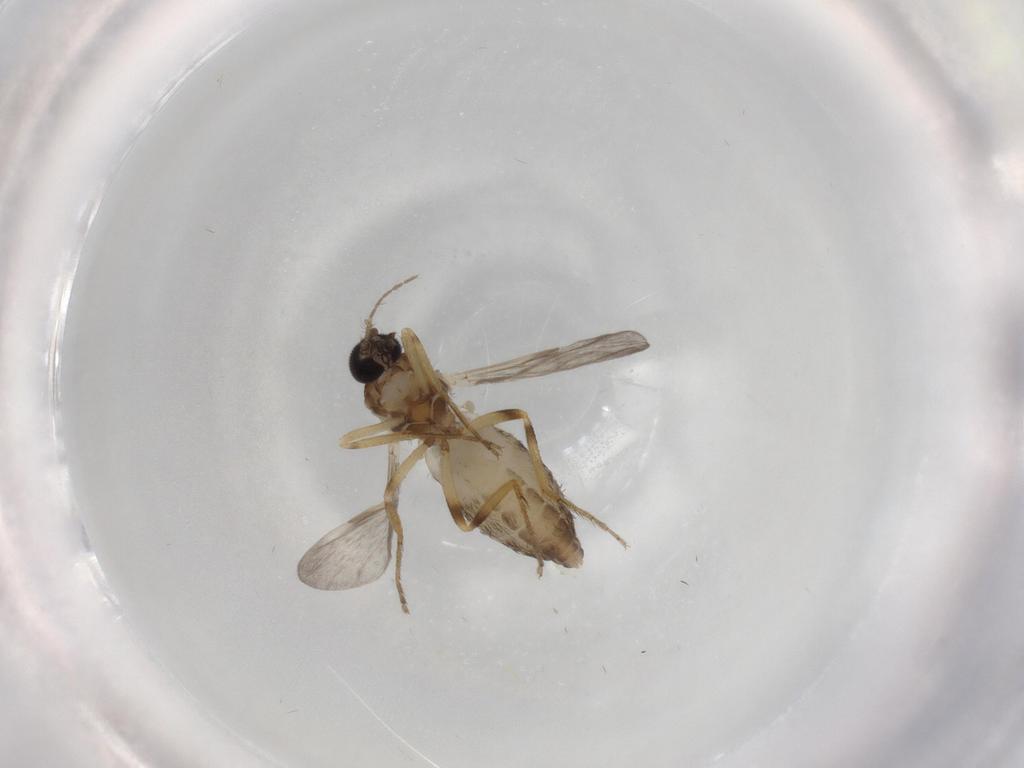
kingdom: Animalia
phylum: Arthropoda
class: Insecta
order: Diptera
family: Ceratopogonidae
